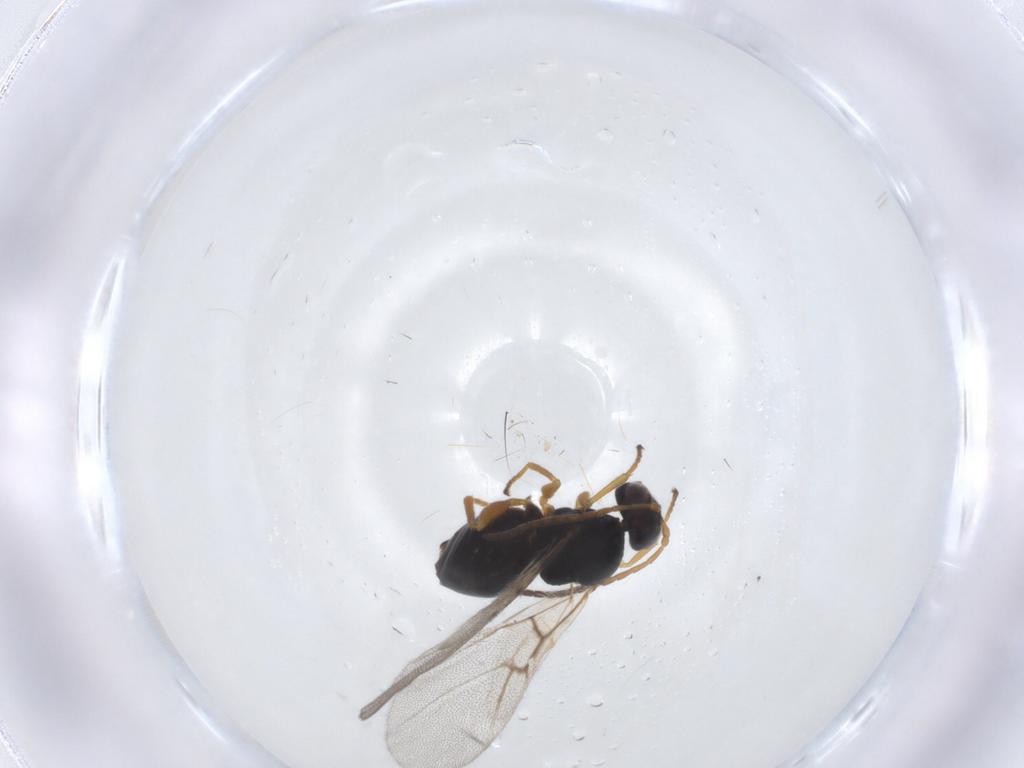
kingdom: Animalia
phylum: Arthropoda
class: Insecta
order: Hymenoptera
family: Cynipidae
